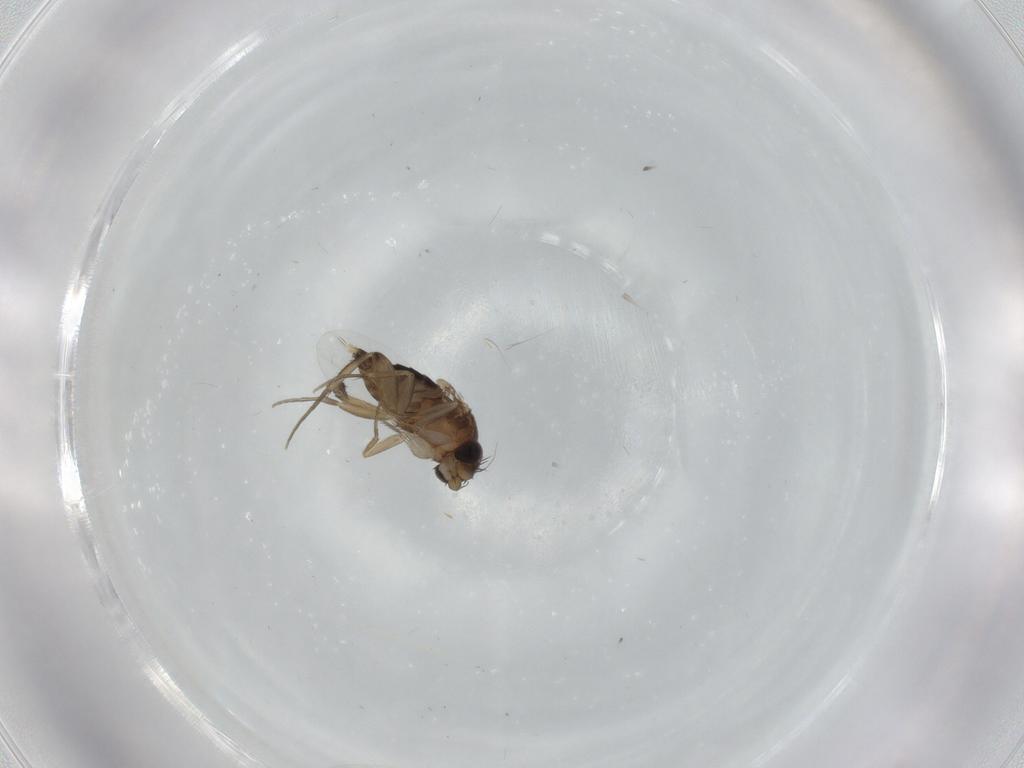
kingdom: Animalia
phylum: Arthropoda
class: Insecta
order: Diptera
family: Phoridae
